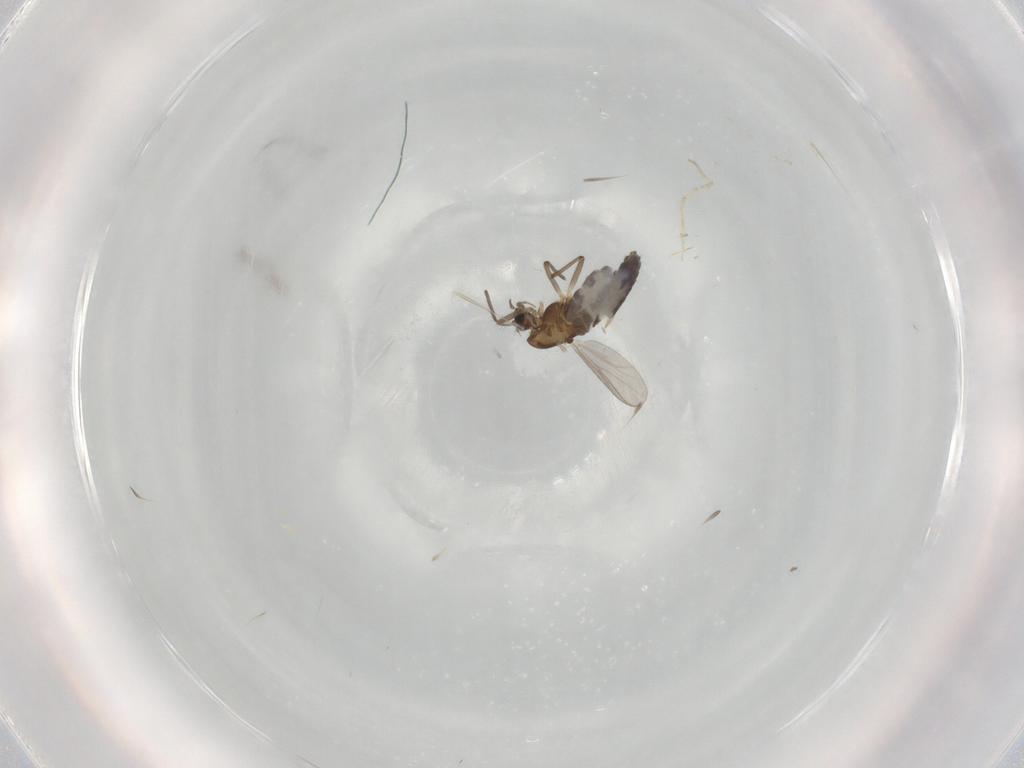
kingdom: Animalia
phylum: Arthropoda
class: Insecta
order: Diptera
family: Chironomidae
